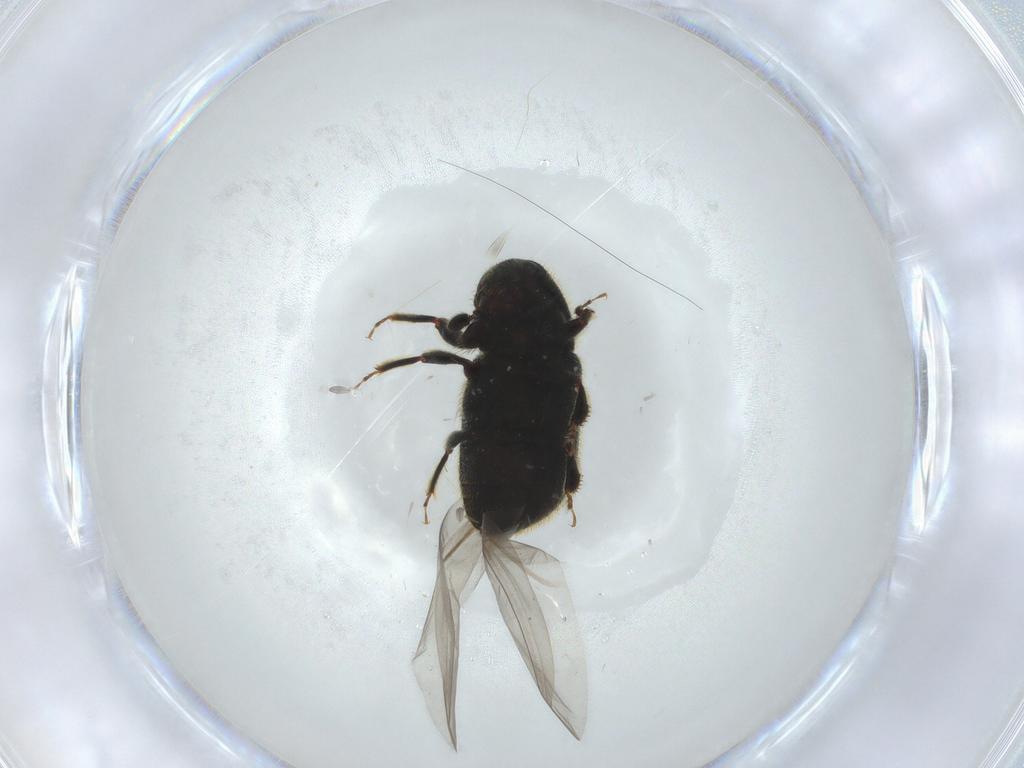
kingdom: Animalia
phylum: Arthropoda
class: Insecta
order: Coleoptera
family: Curculionidae
